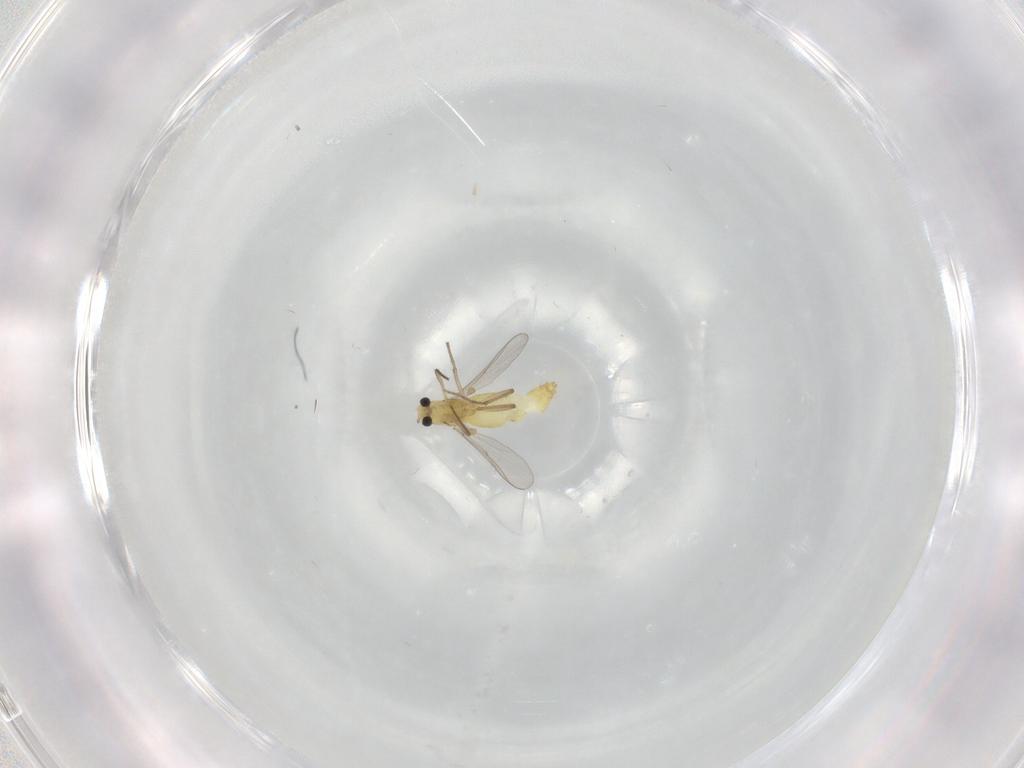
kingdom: Animalia
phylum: Arthropoda
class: Insecta
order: Diptera
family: Chironomidae
